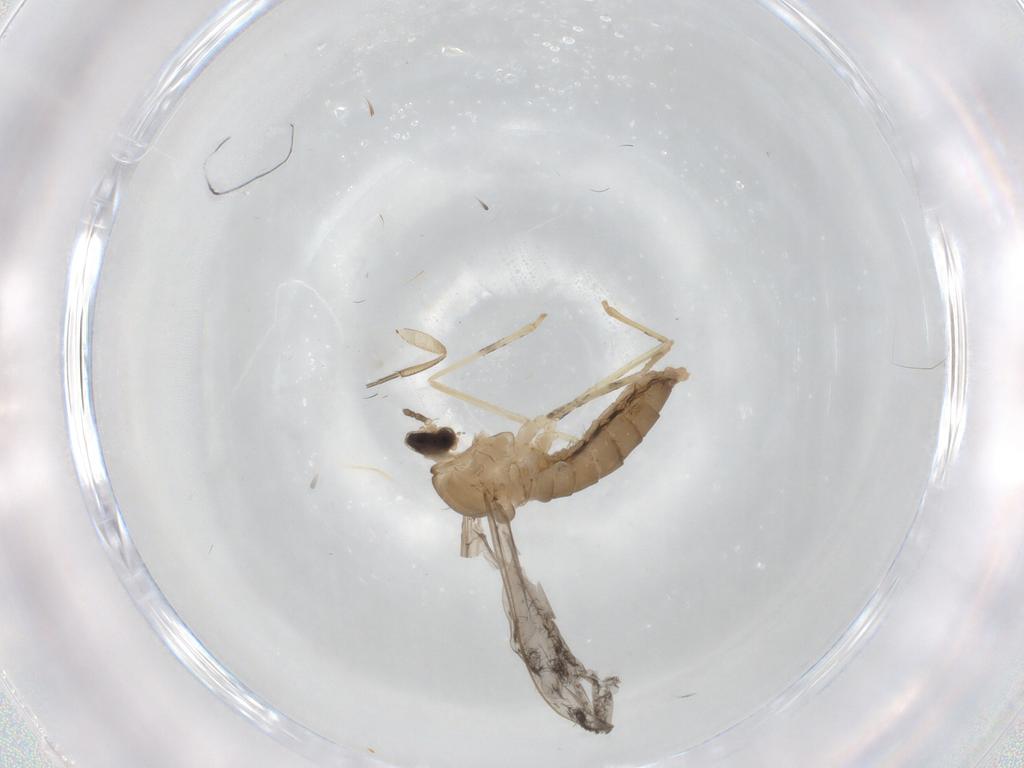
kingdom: Animalia
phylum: Arthropoda
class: Insecta
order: Diptera
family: Cecidomyiidae
